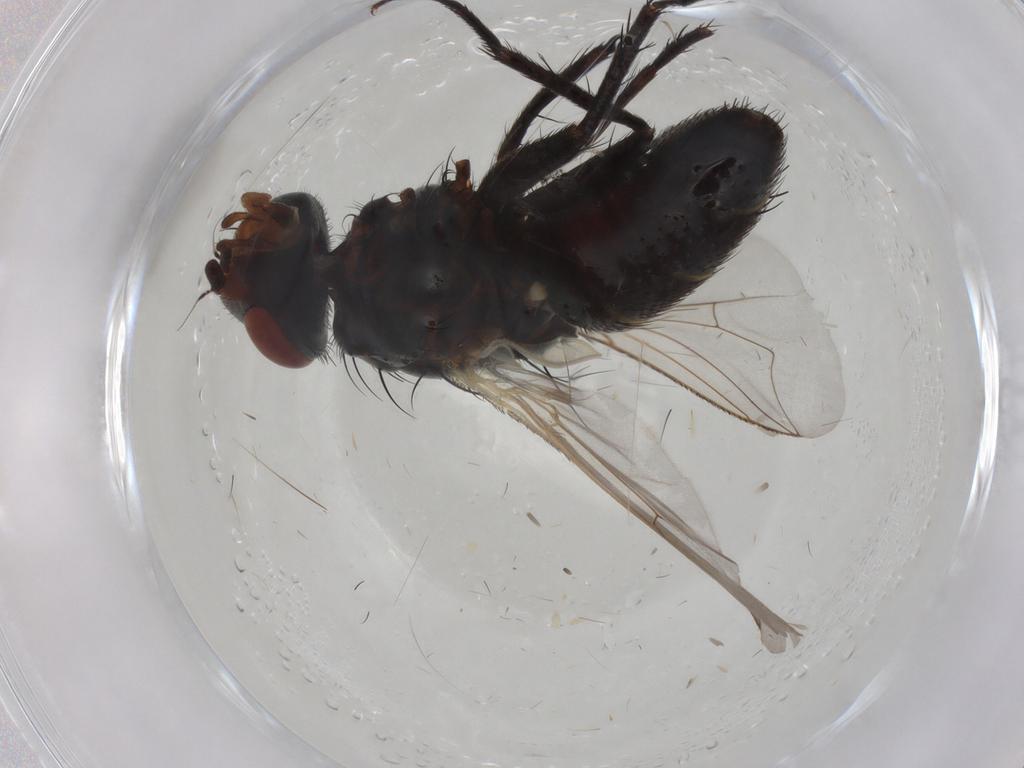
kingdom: Animalia
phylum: Arthropoda
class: Insecta
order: Diptera
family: Sarcophagidae
